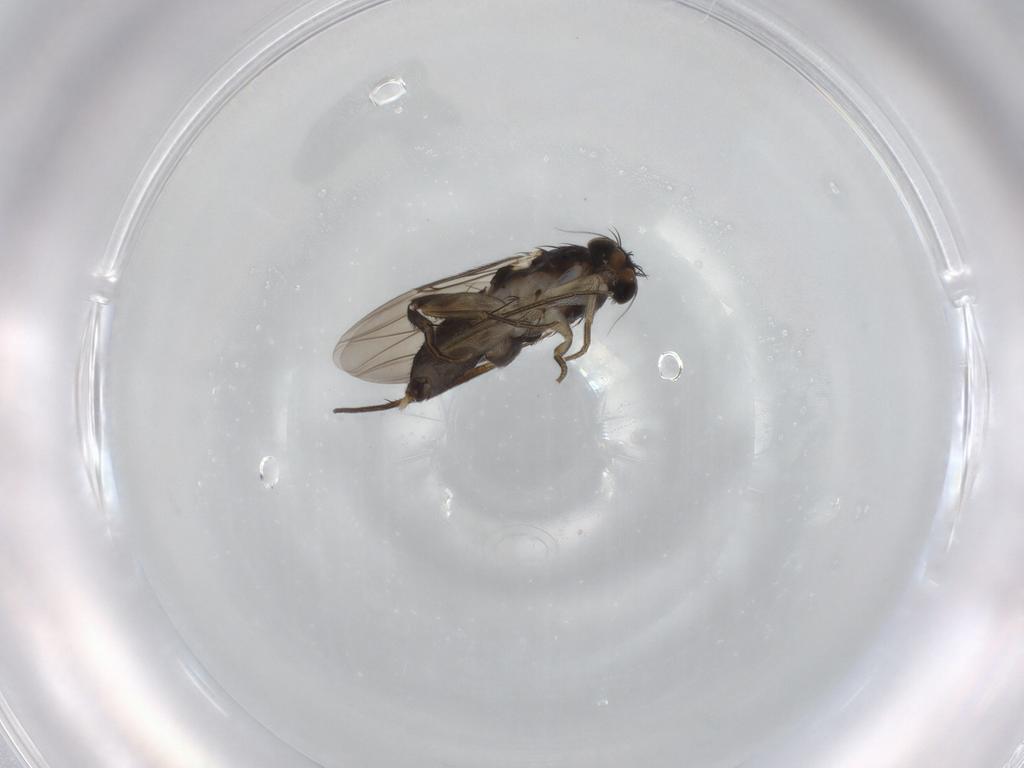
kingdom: Animalia
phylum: Arthropoda
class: Insecta
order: Diptera
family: Phoridae
